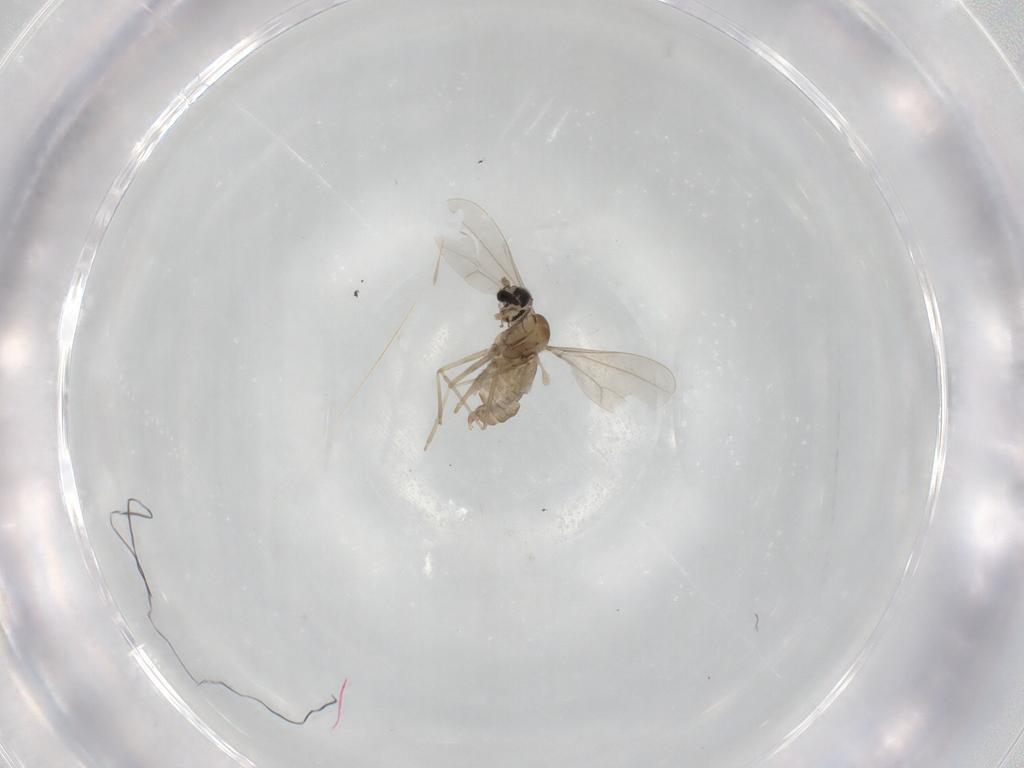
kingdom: Animalia
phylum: Arthropoda
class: Insecta
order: Diptera
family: Cecidomyiidae
